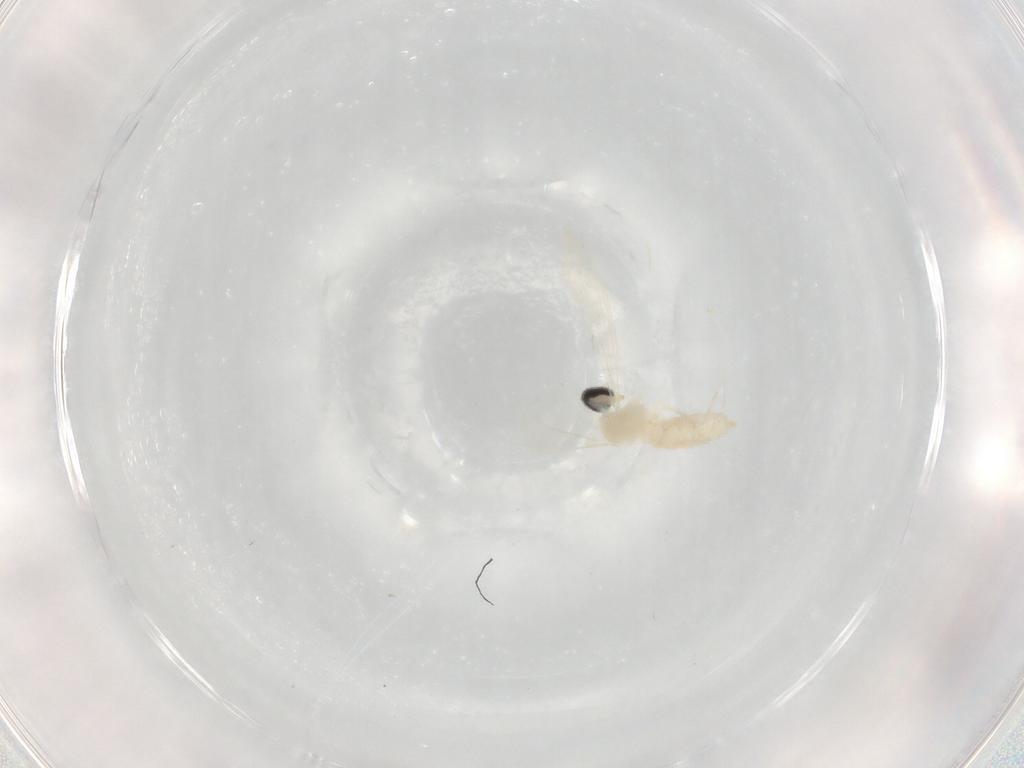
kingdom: Animalia
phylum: Arthropoda
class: Insecta
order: Diptera
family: Cecidomyiidae
